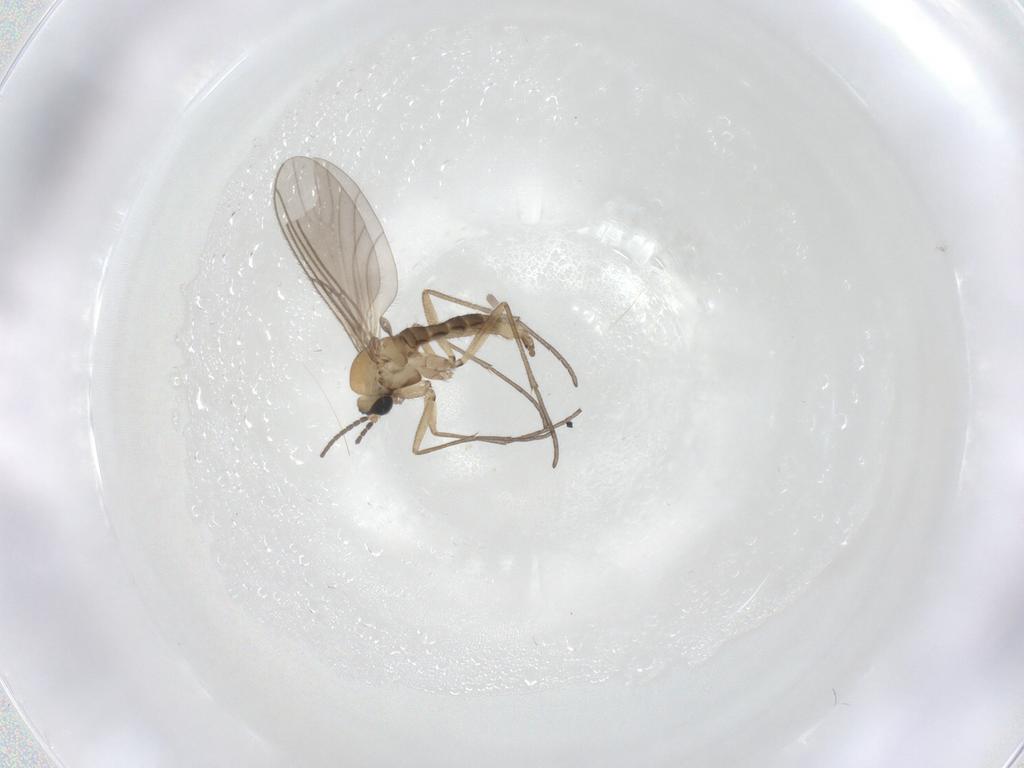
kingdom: Animalia
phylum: Arthropoda
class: Insecta
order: Diptera
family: Sciaridae
